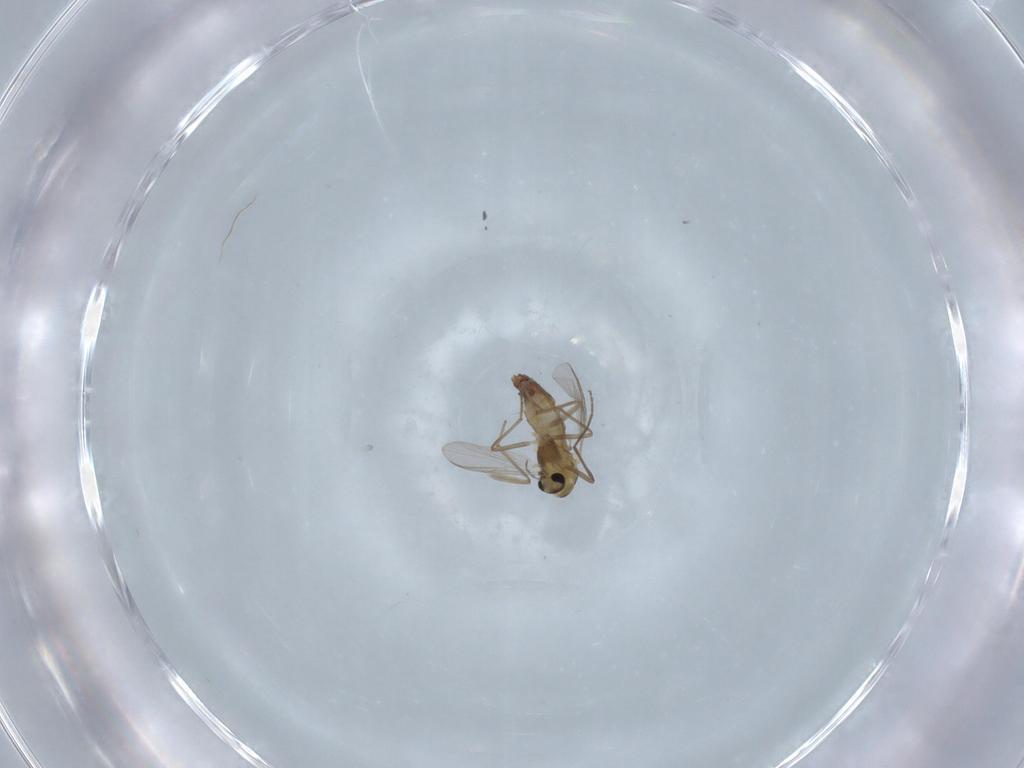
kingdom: Animalia
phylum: Arthropoda
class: Insecta
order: Diptera
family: Chironomidae
